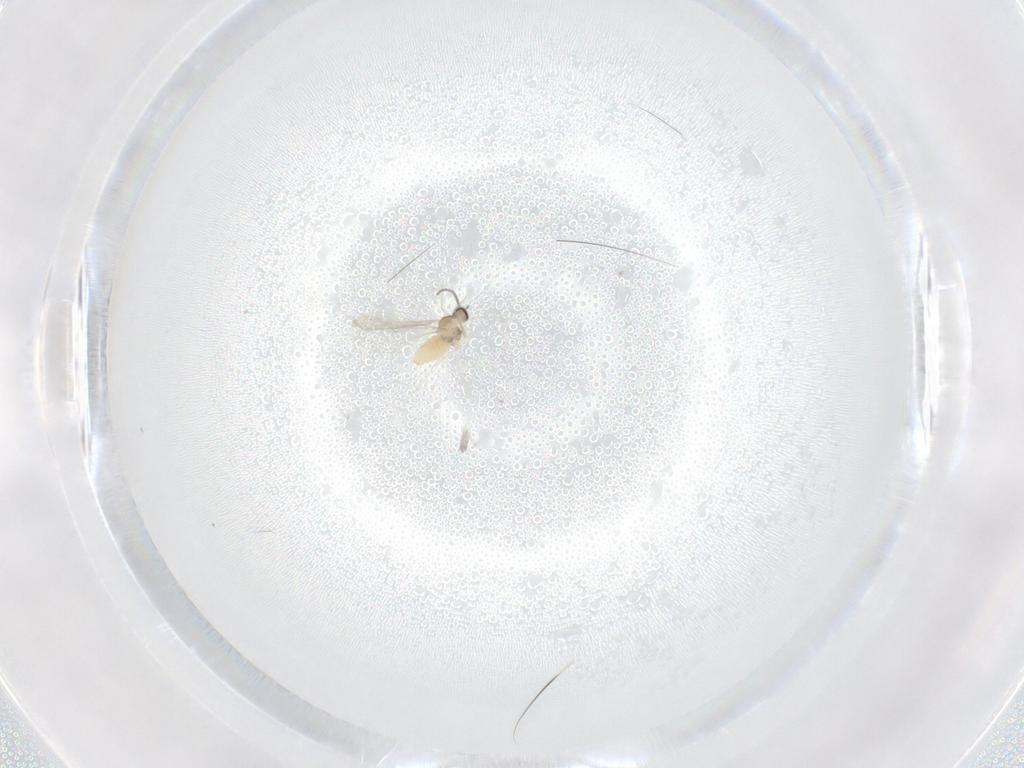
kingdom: Animalia
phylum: Arthropoda
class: Insecta
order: Diptera
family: Cecidomyiidae
